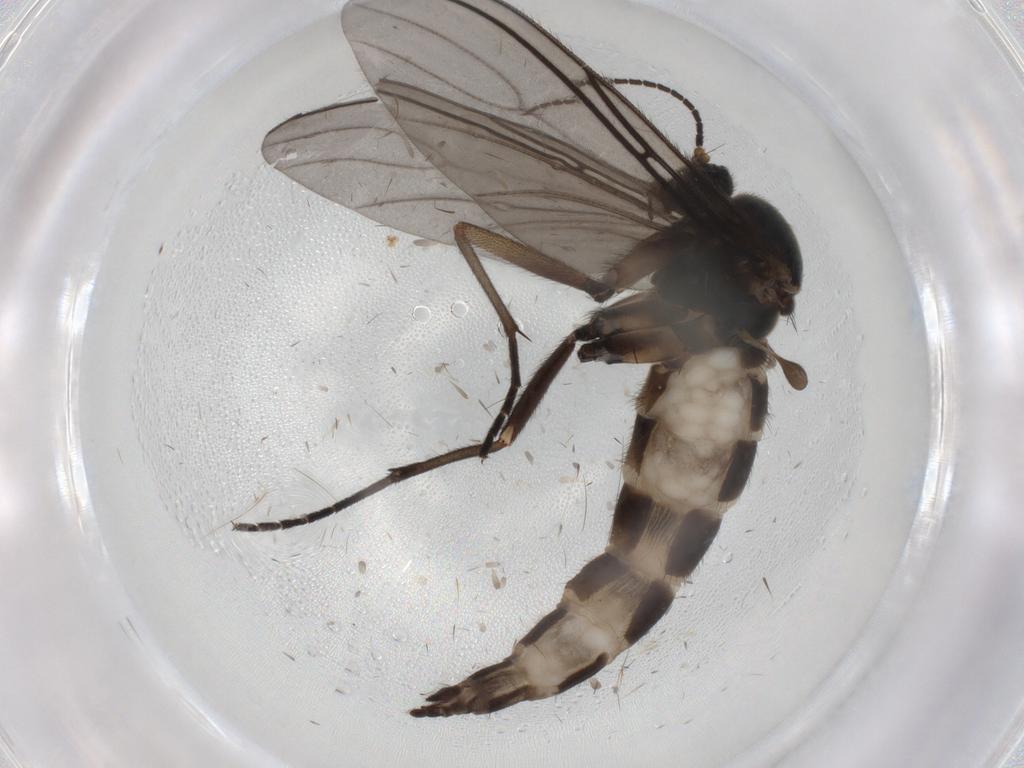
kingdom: Animalia
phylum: Arthropoda
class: Insecta
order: Diptera
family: Cecidomyiidae
